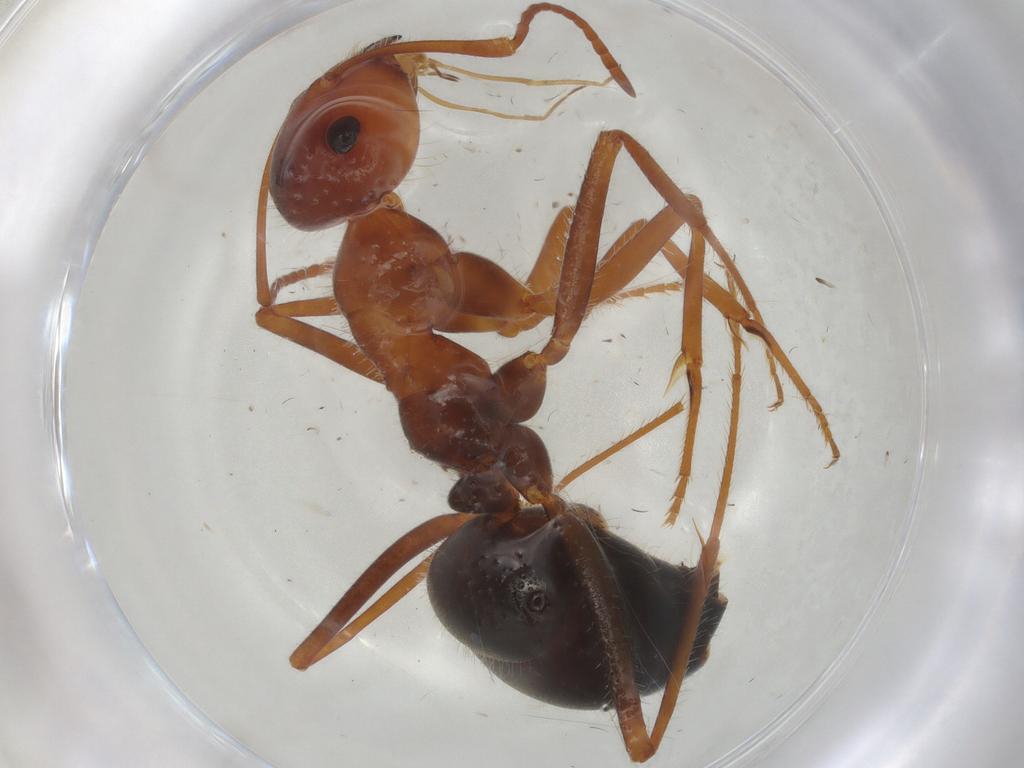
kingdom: Animalia
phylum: Arthropoda
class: Insecta
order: Hymenoptera
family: Formicidae
